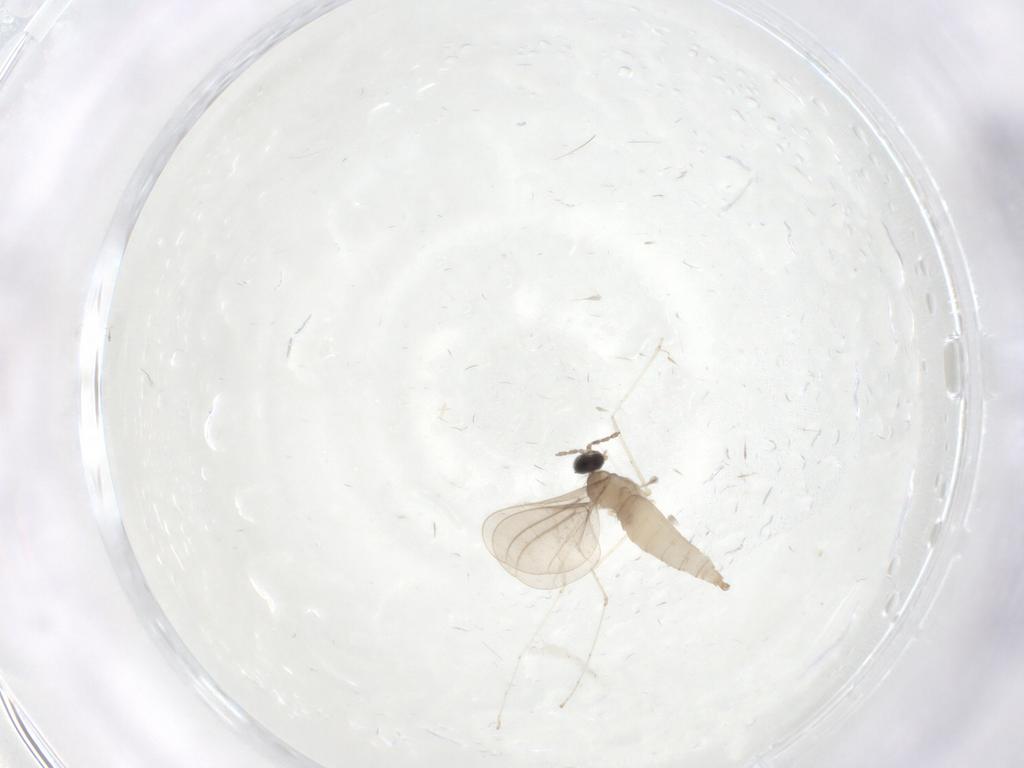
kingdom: Animalia
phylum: Arthropoda
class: Insecta
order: Diptera
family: Cecidomyiidae
